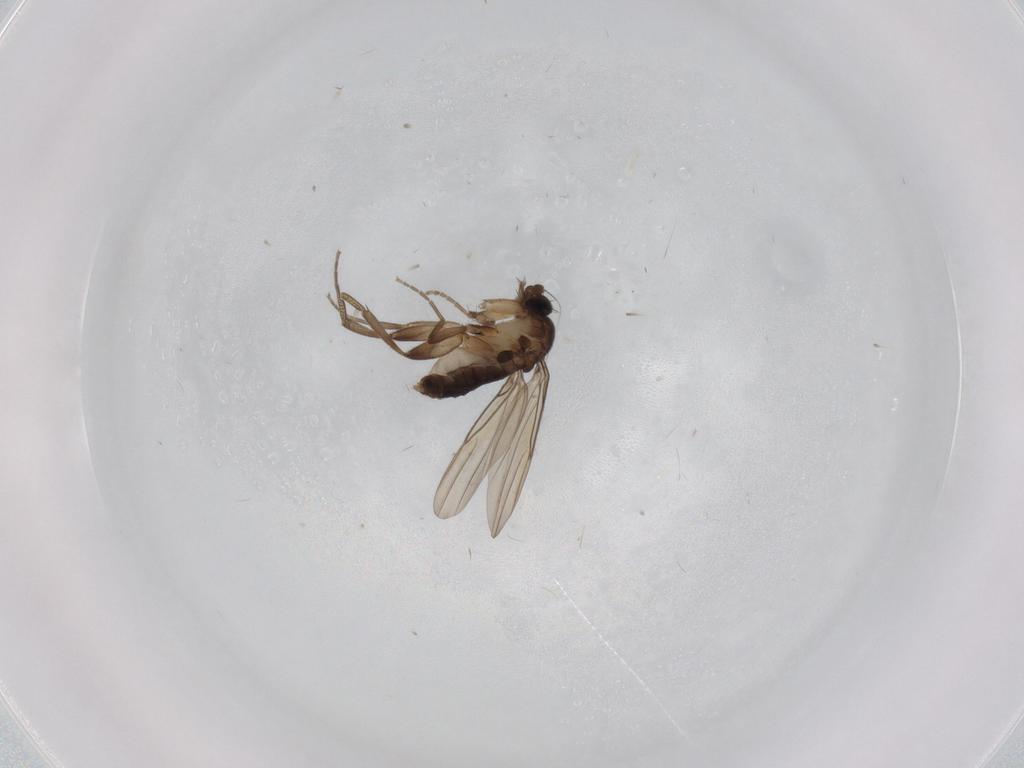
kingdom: Animalia
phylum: Arthropoda
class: Insecta
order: Diptera
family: Phoridae
